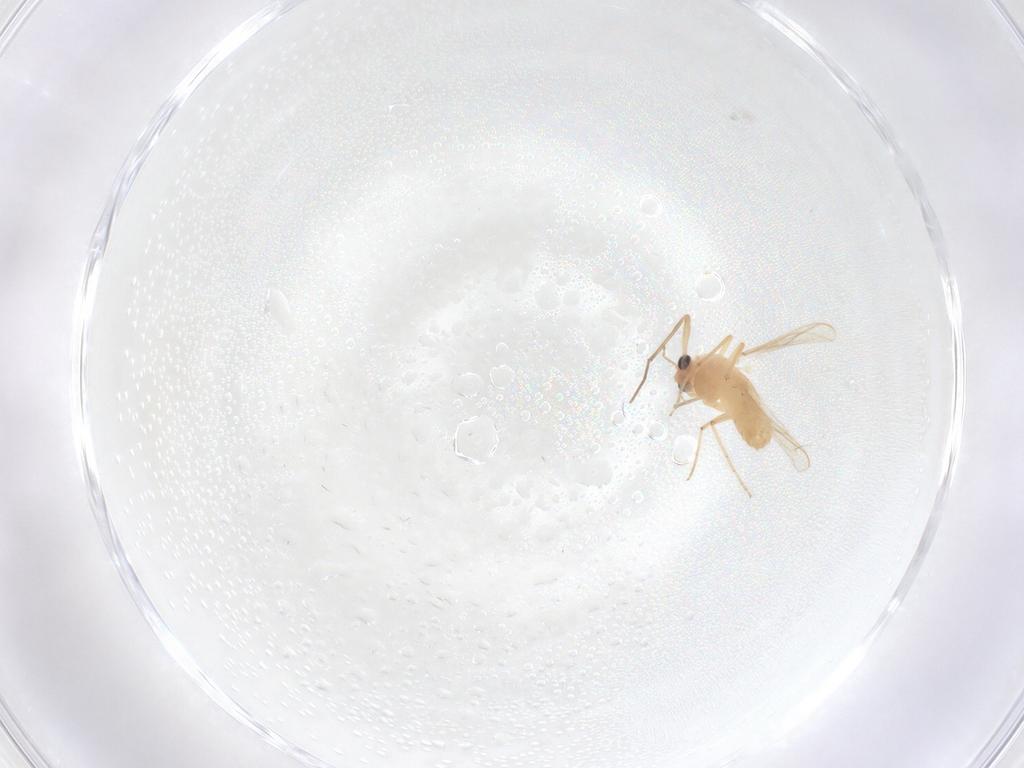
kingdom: Animalia
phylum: Arthropoda
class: Insecta
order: Diptera
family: Chironomidae
